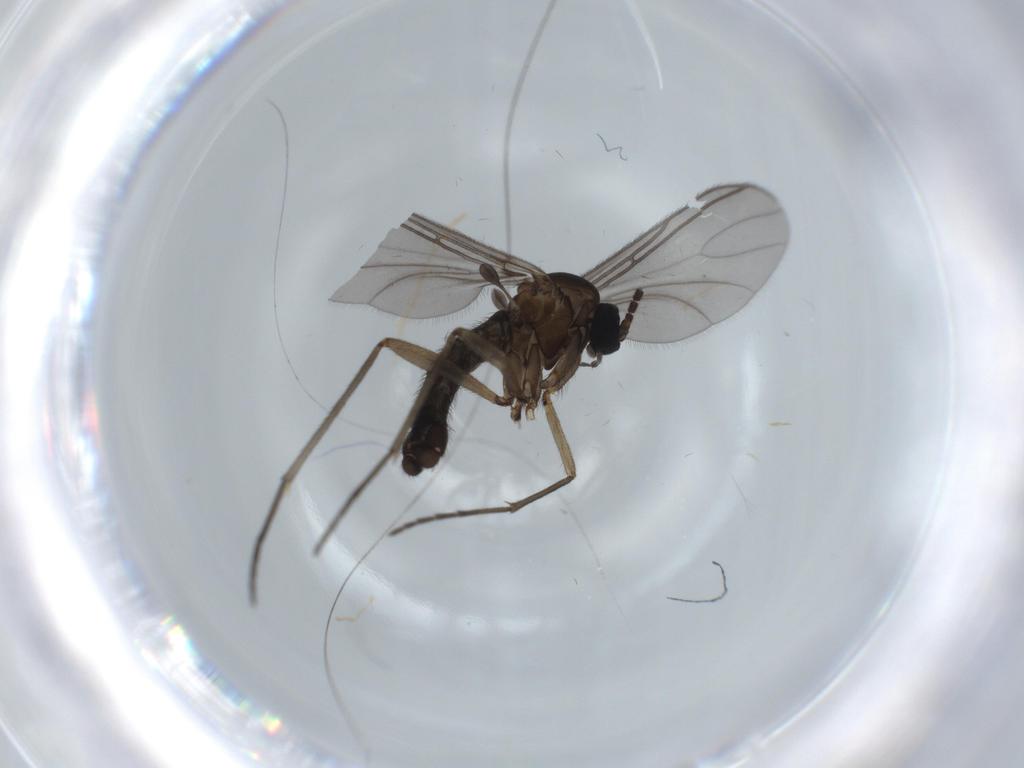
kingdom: Animalia
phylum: Arthropoda
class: Insecta
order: Diptera
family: Sciaridae
